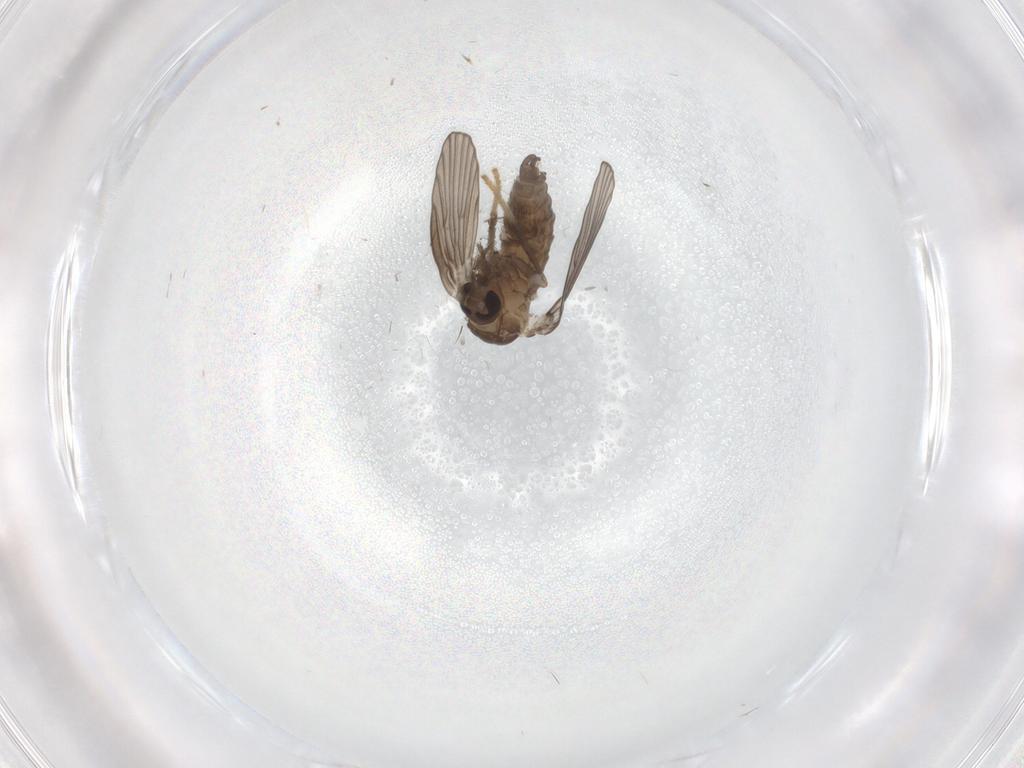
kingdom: Animalia
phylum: Arthropoda
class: Insecta
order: Diptera
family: Psychodidae
